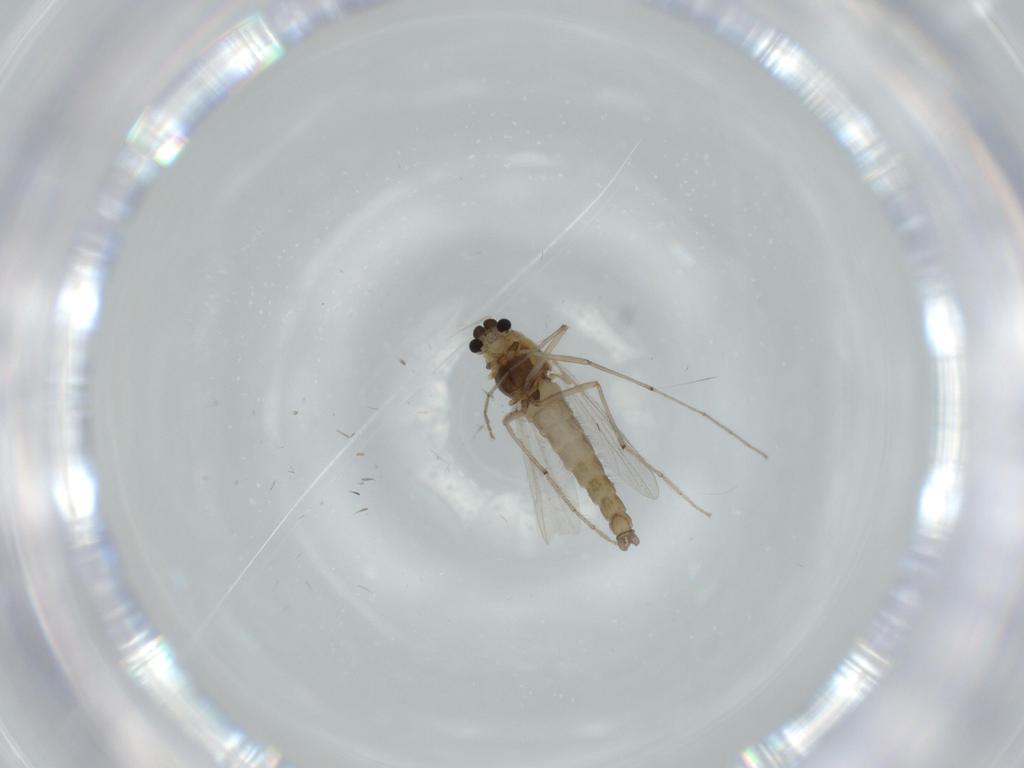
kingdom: Animalia
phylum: Arthropoda
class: Insecta
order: Diptera
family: Chironomidae
